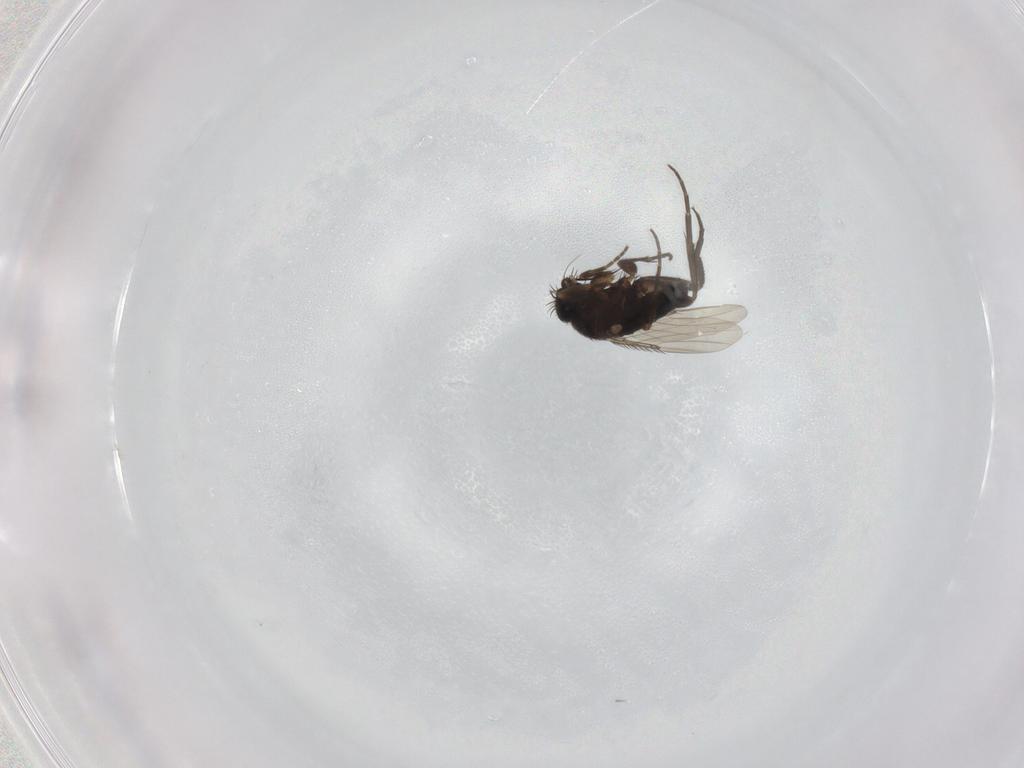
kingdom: Animalia
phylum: Arthropoda
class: Insecta
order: Diptera
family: Phoridae
